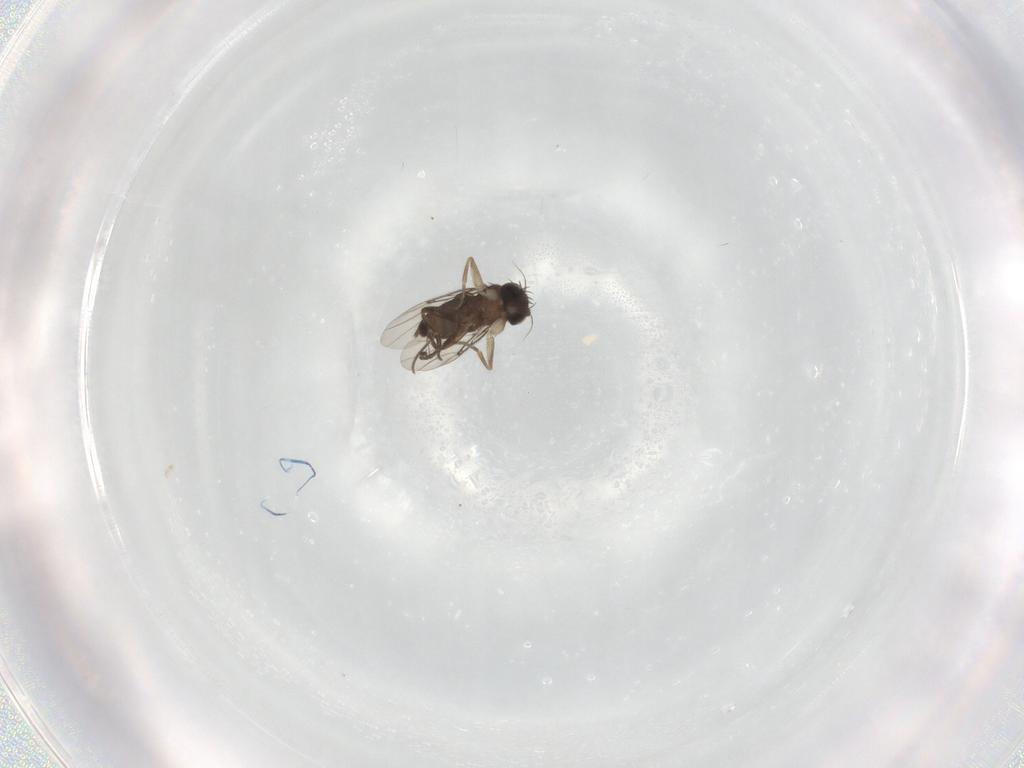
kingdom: Animalia
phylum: Arthropoda
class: Insecta
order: Diptera
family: Phoridae
